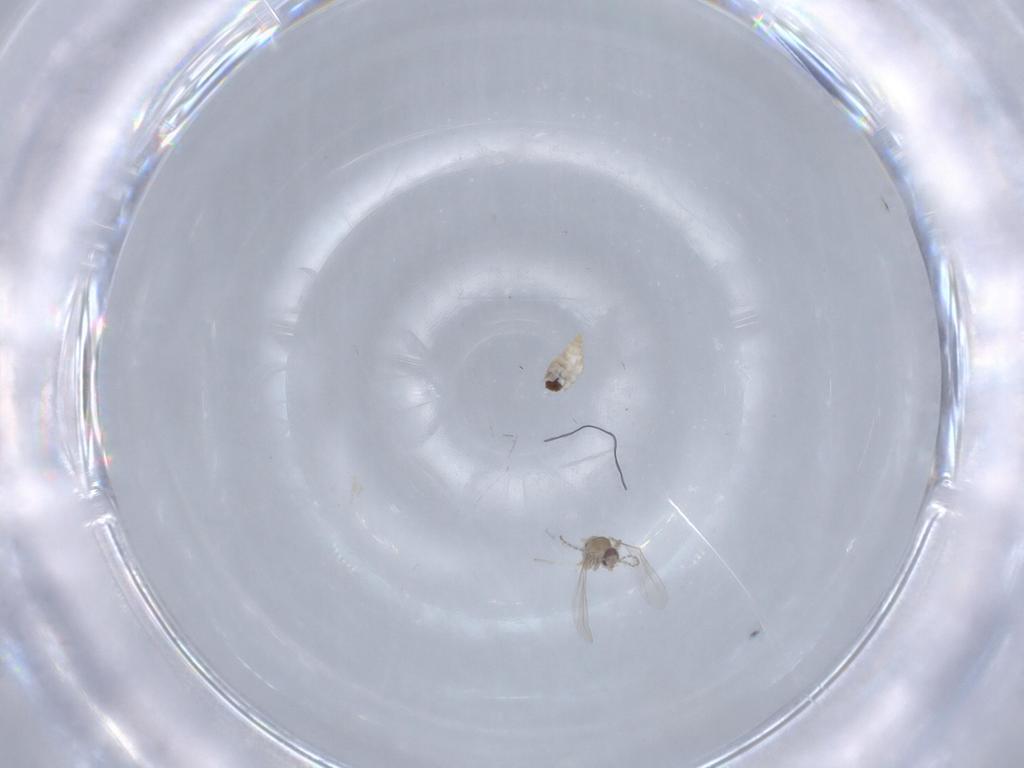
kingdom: Animalia
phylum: Arthropoda
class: Insecta
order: Diptera
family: Cecidomyiidae
